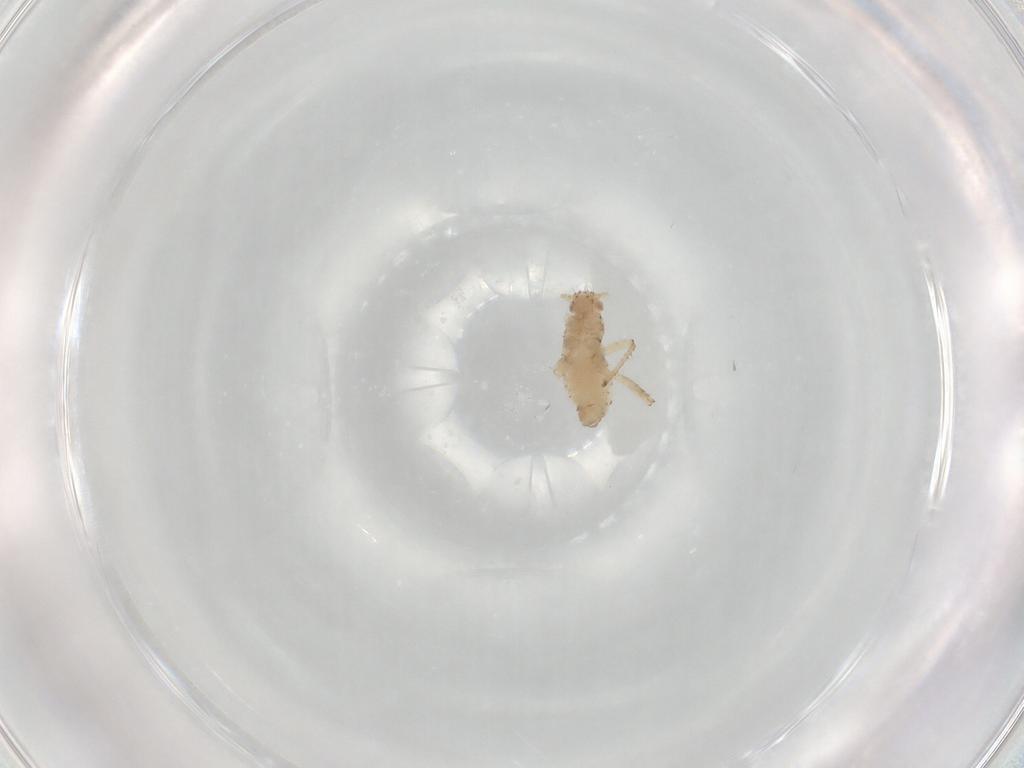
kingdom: Animalia
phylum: Arthropoda
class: Insecta
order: Hemiptera
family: Aphididae
